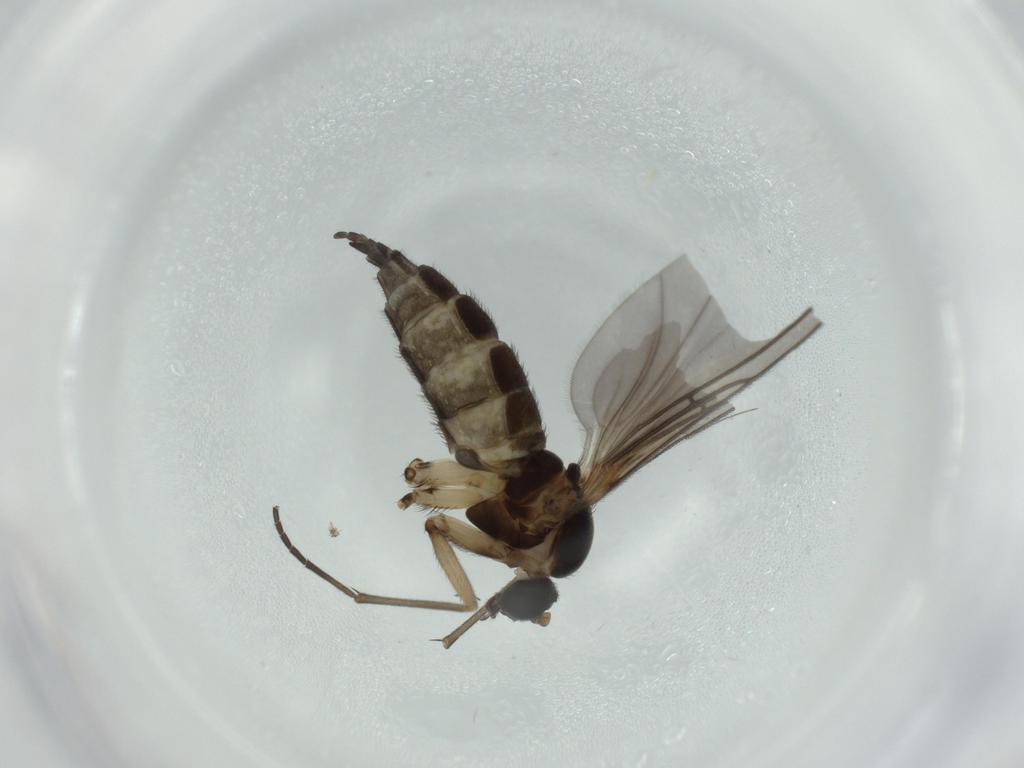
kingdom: Animalia
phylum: Arthropoda
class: Insecta
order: Diptera
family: Sciaridae
